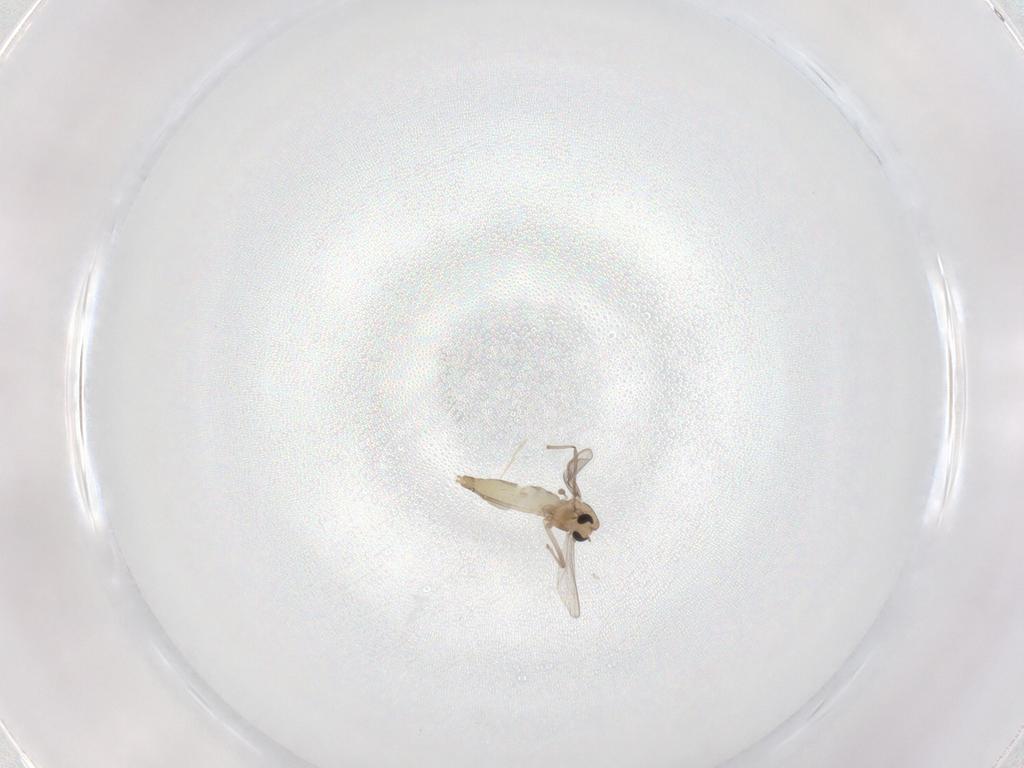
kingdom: Animalia
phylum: Arthropoda
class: Insecta
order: Diptera
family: Chironomidae
